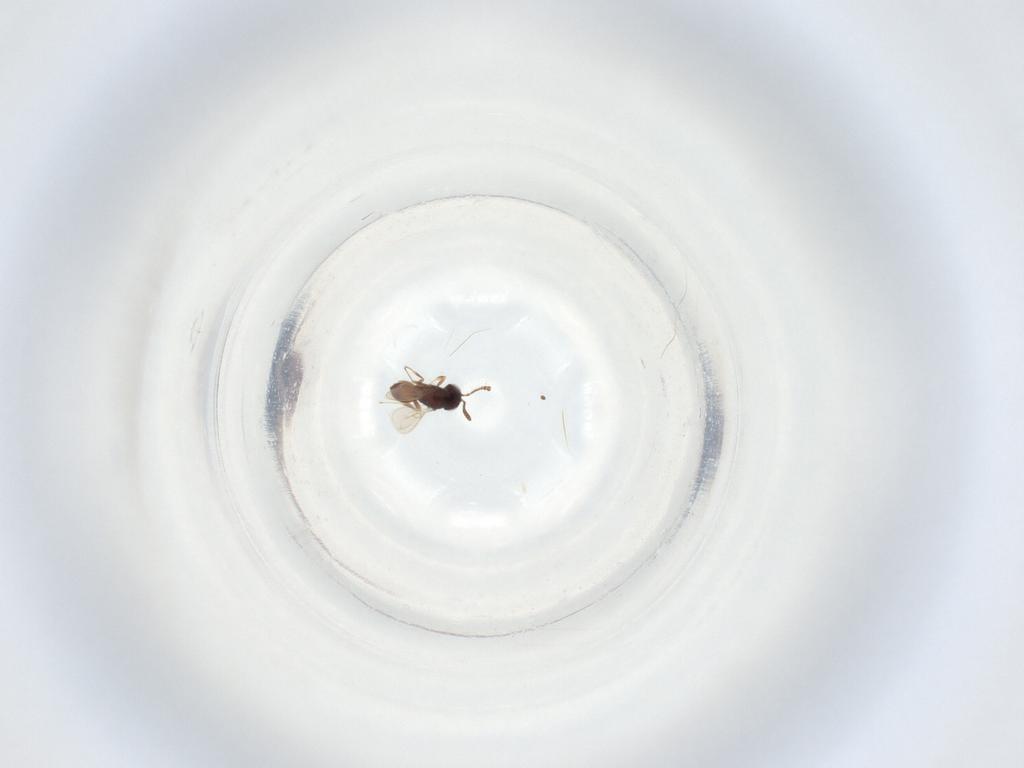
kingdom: Animalia
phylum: Arthropoda
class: Insecta
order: Hymenoptera
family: Scelionidae
